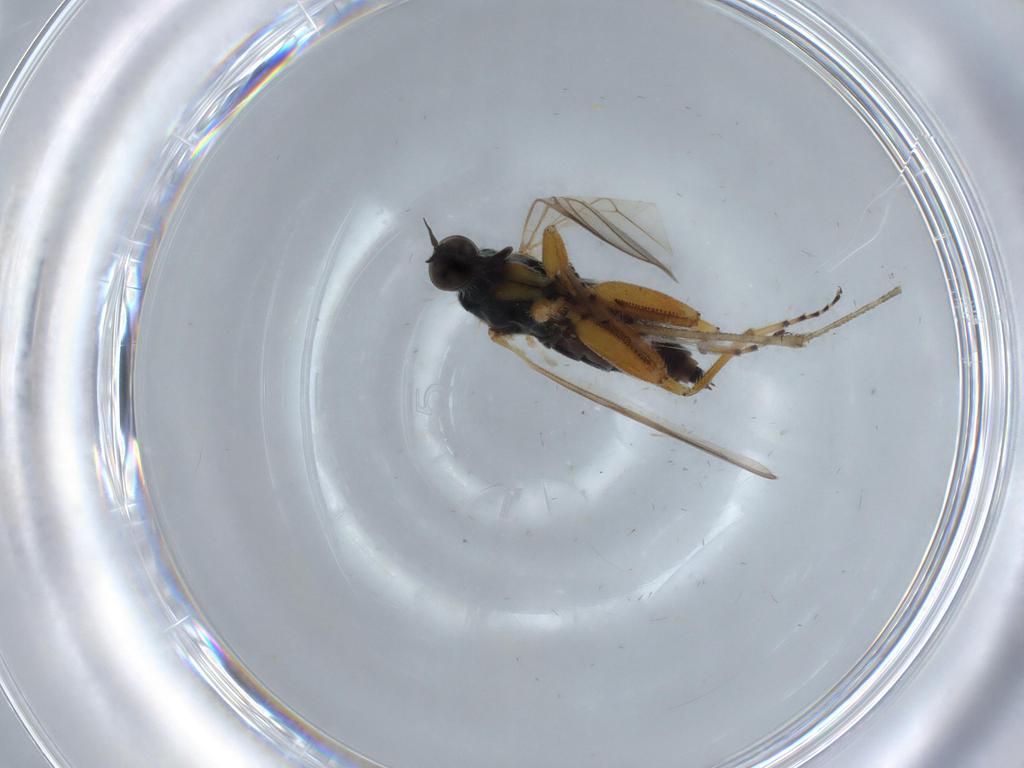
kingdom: Animalia
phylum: Arthropoda
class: Insecta
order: Diptera
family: Hybotidae
